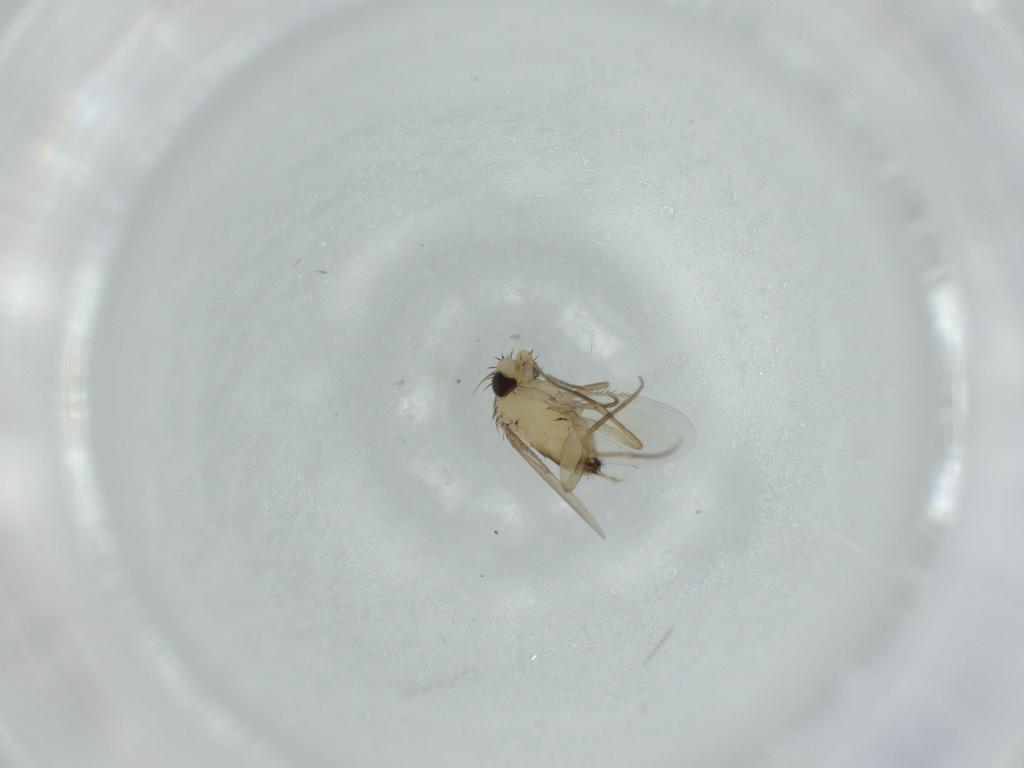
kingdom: Animalia
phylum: Arthropoda
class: Insecta
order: Diptera
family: Phoridae
